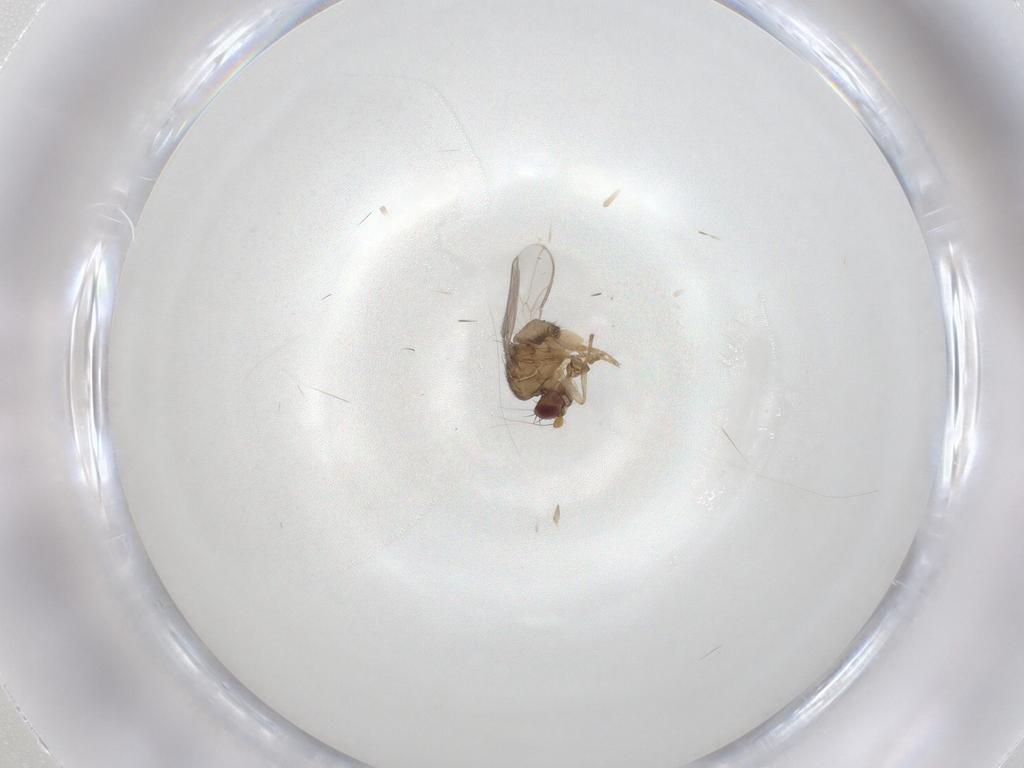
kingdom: Animalia
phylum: Arthropoda
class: Insecta
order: Diptera
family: Sphaeroceridae
